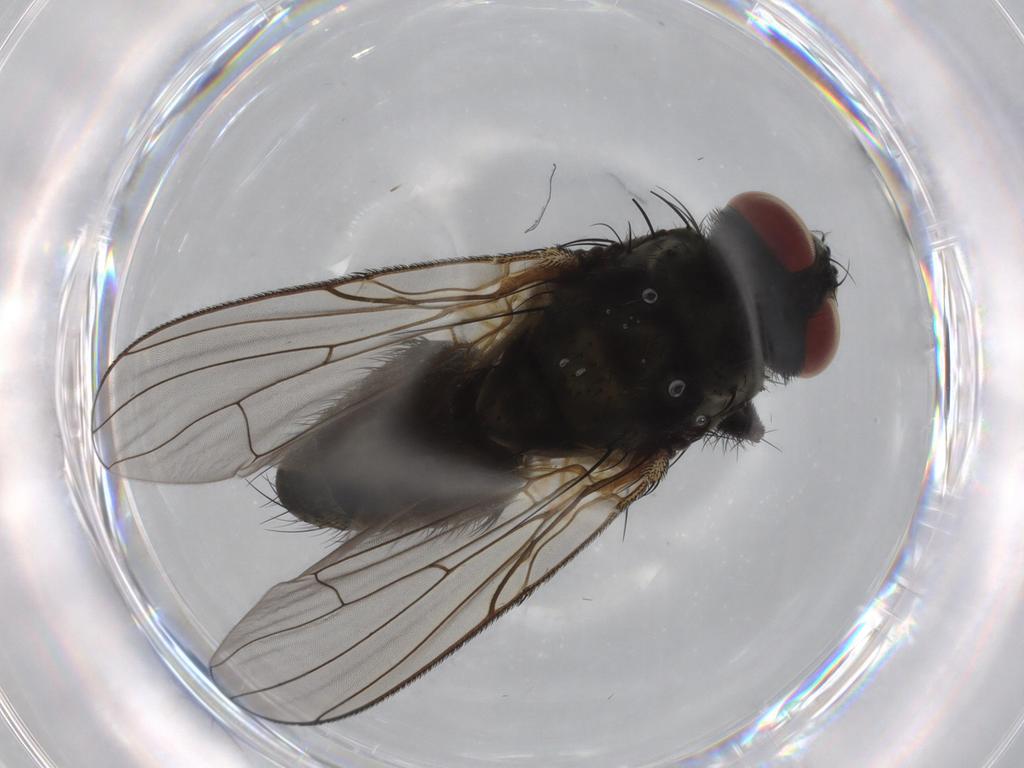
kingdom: Animalia
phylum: Arthropoda
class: Insecta
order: Diptera
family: Muscidae
